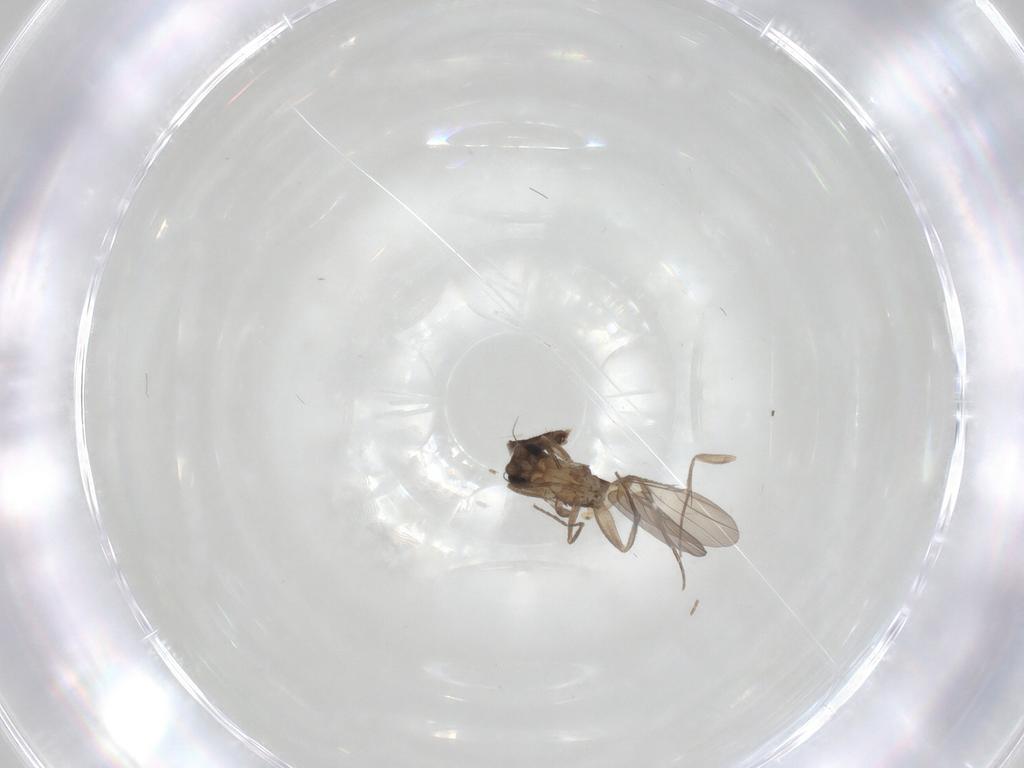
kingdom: Animalia
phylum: Arthropoda
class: Insecta
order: Diptera
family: Phoridae
